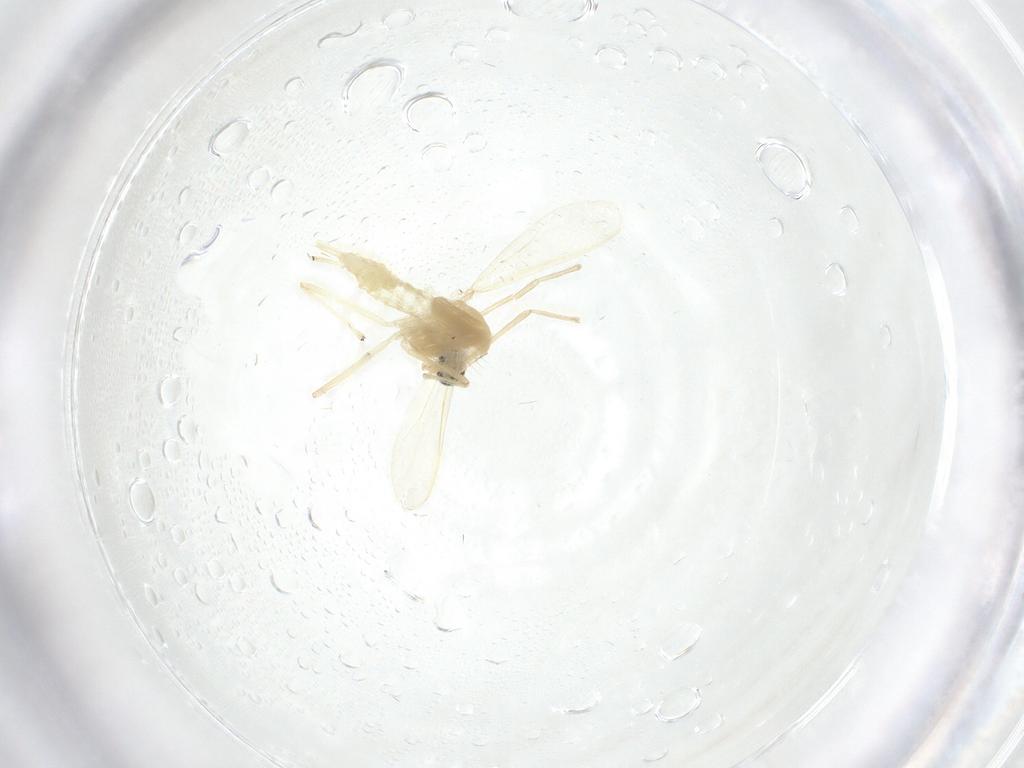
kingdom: Animalia
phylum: Arthropoda
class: Insecta
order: Diptera
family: Chironomidae
